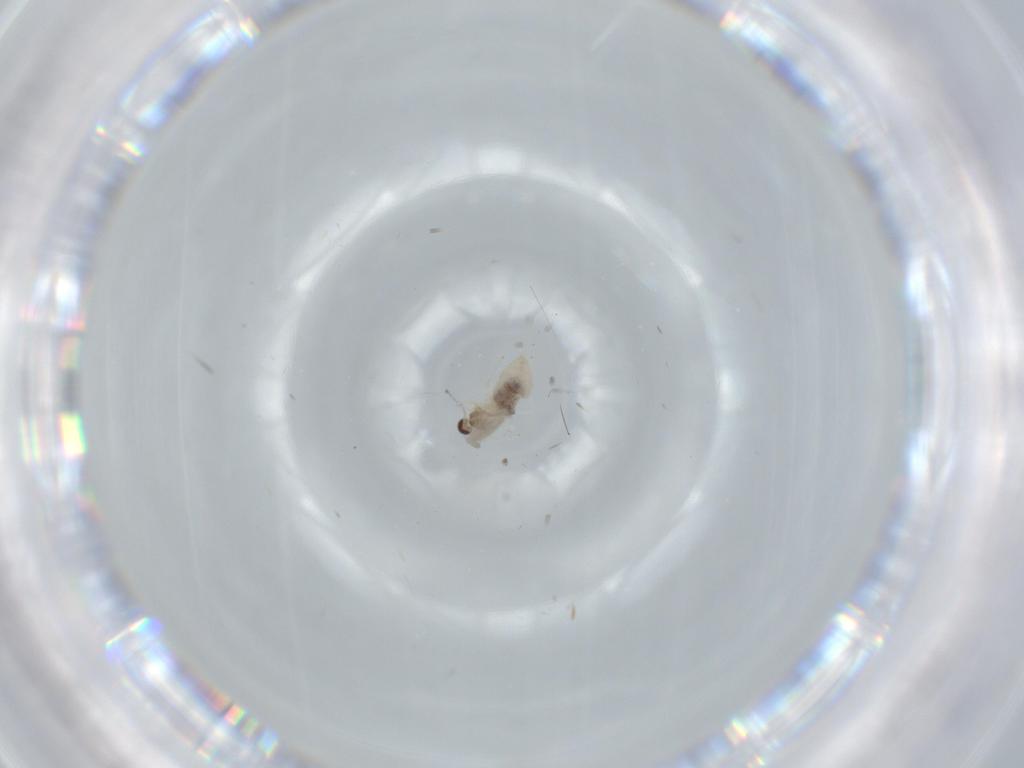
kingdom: Animalia
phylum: Arthropoda
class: Insecta
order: Diptera
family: Cecidomyiidae
